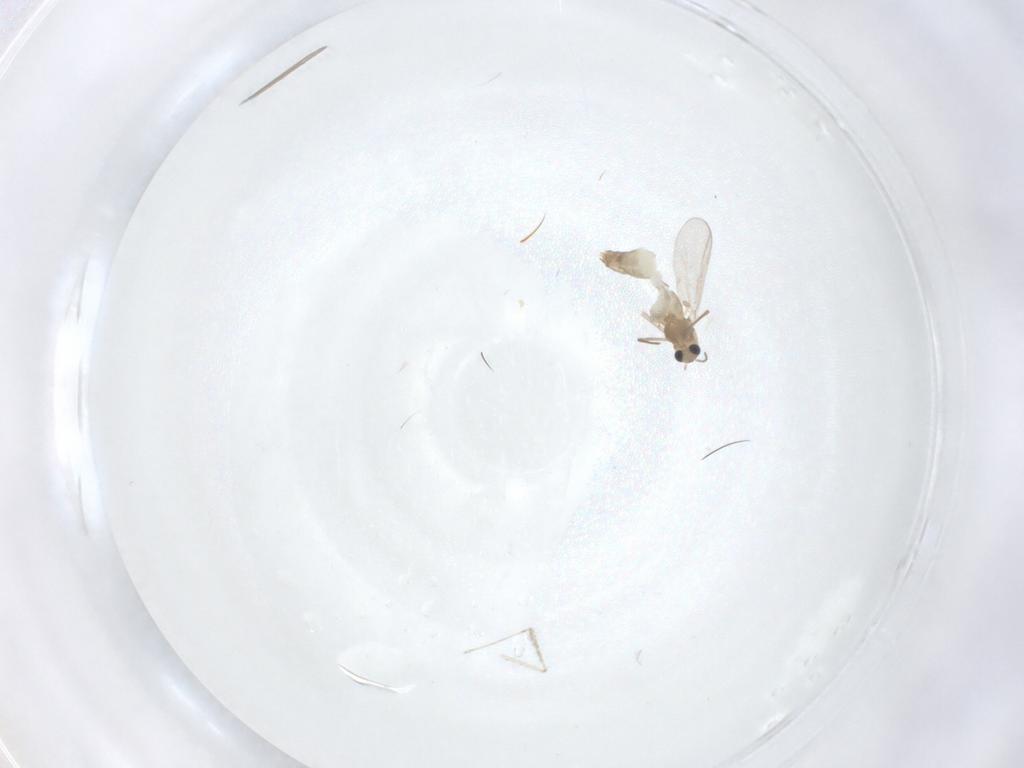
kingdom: Animalia
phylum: Arthropoda
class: Insecta
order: Diptera
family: Chironomidae
